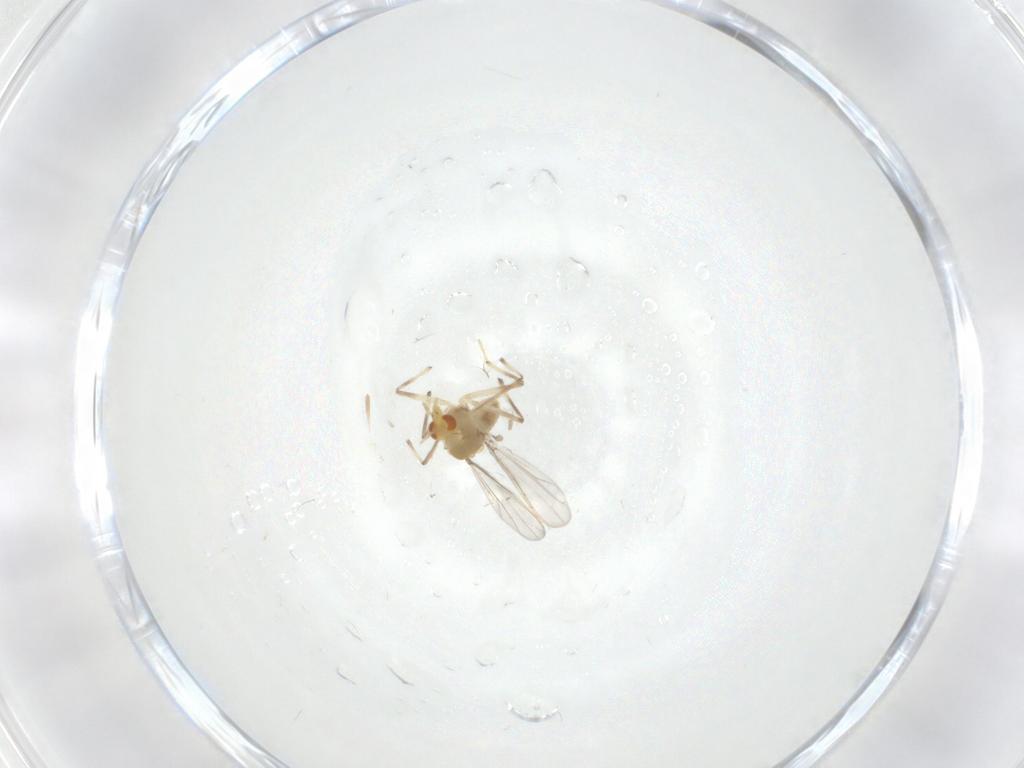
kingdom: Animalia
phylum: Arthropoda
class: Insecta
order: Diptera
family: Chironomidae
